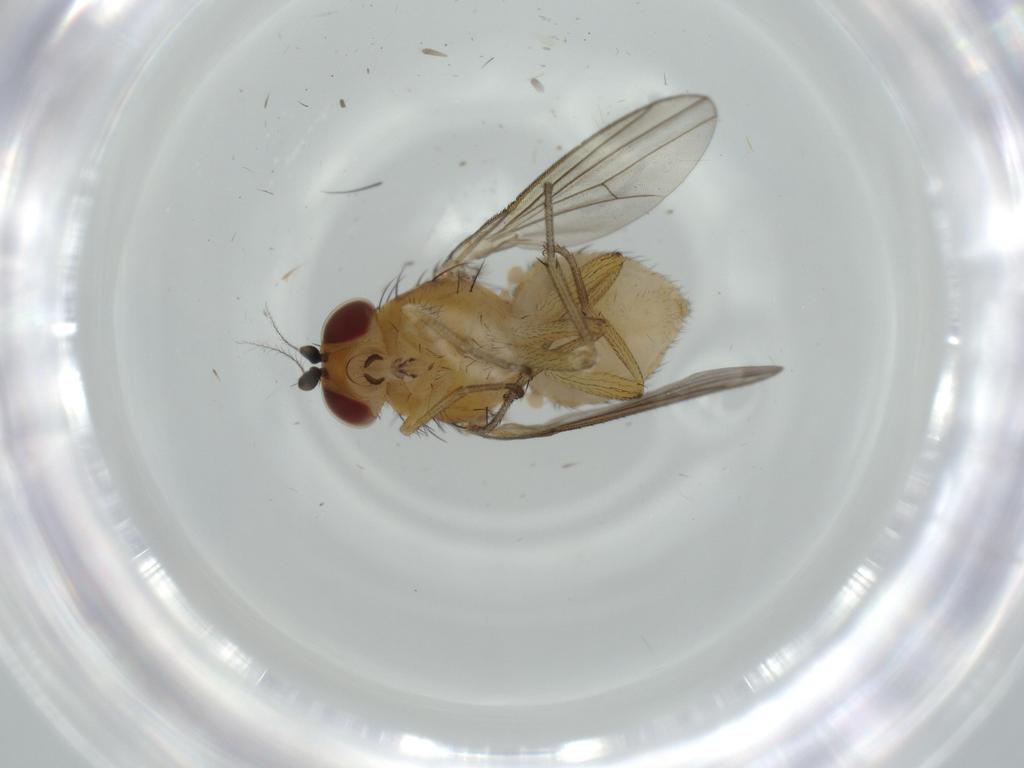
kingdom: Animalia
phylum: Arthropoda
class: Insecta
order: Diptera
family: Lauxaniidae
